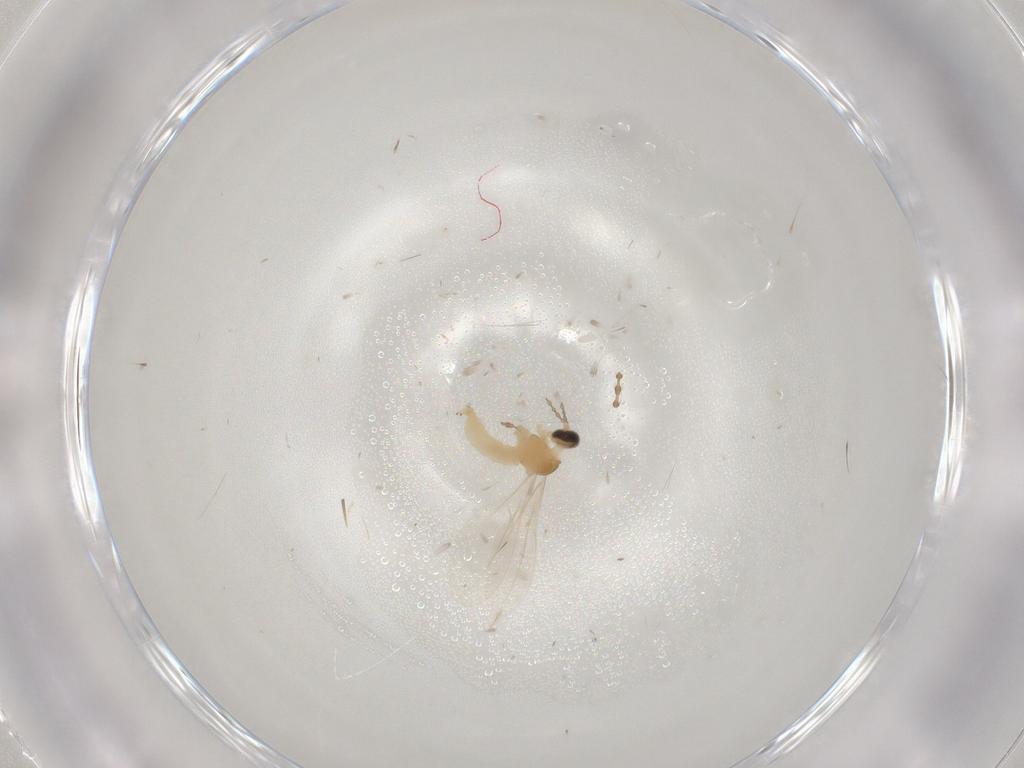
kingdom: Animalia
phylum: Arthropoda
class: Insecta
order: Diptera
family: Cecidomyiidae
